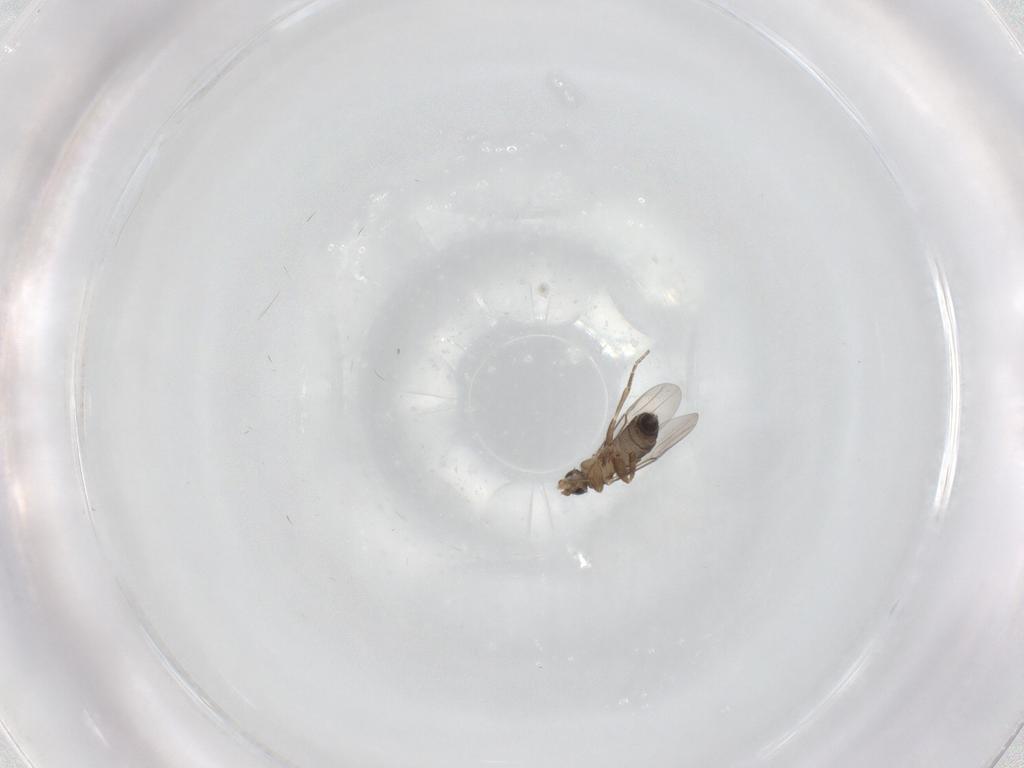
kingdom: Animalia
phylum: Arthropoda
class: Insecta
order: Diptera
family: Phoridae
